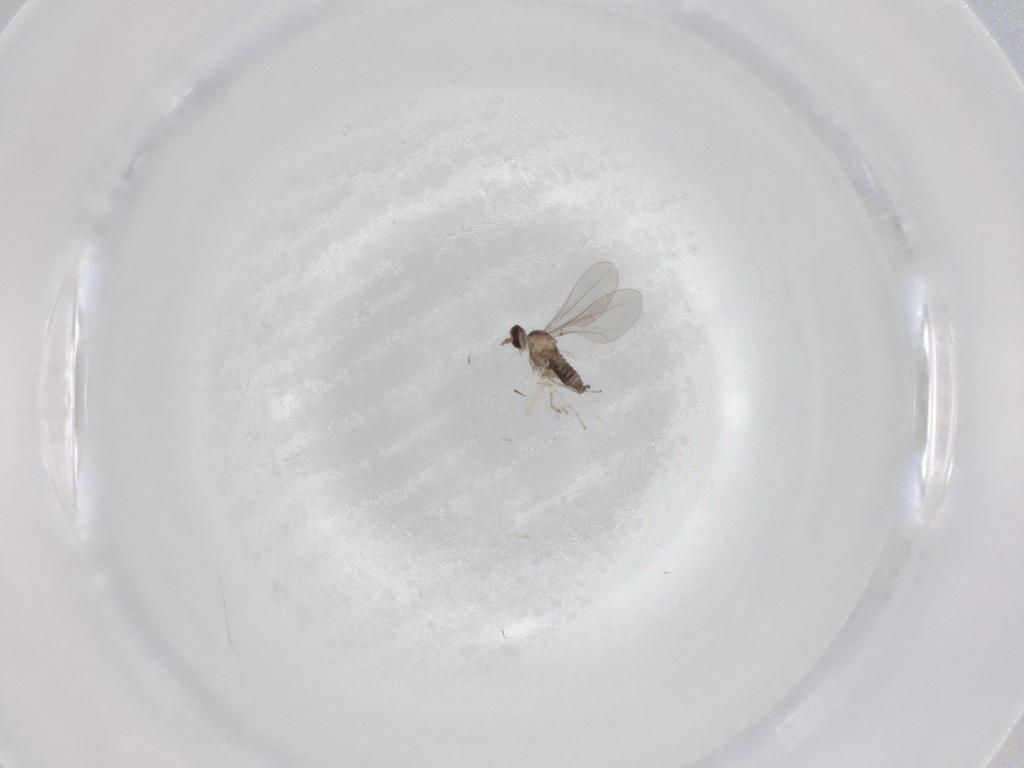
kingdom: Animalia
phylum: Arthropoda
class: Insecta
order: Diptera
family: Cecidomyiidae
